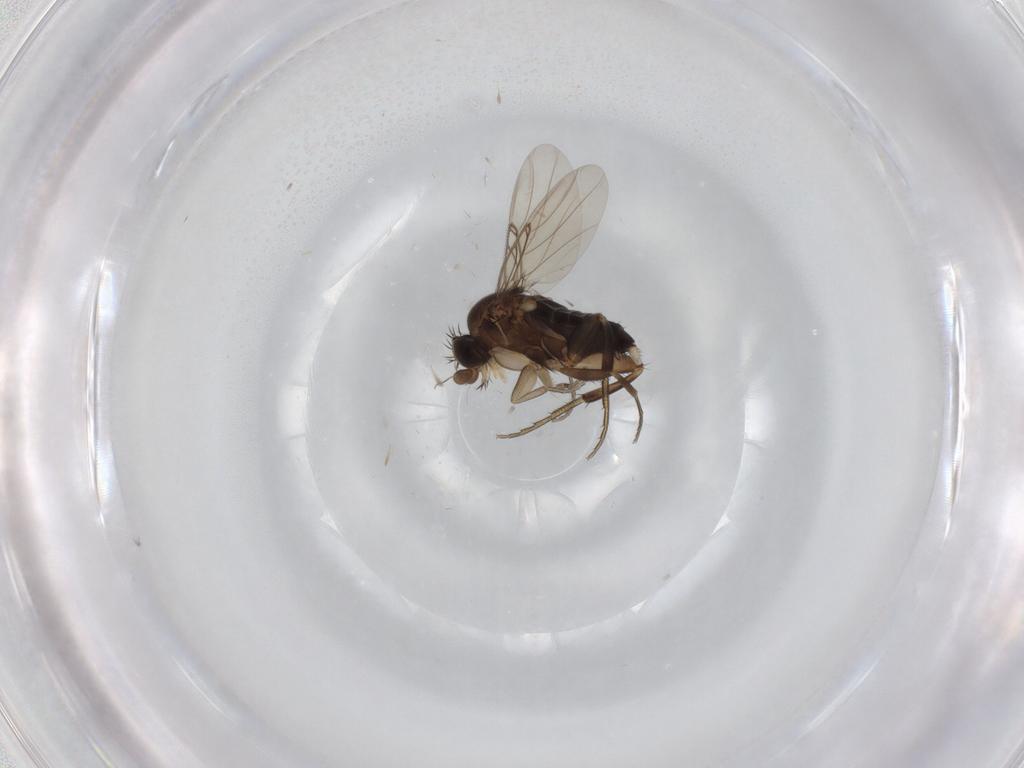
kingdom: Animalia
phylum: Arthropoda
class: Insecta
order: Diptera
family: Phoridae
